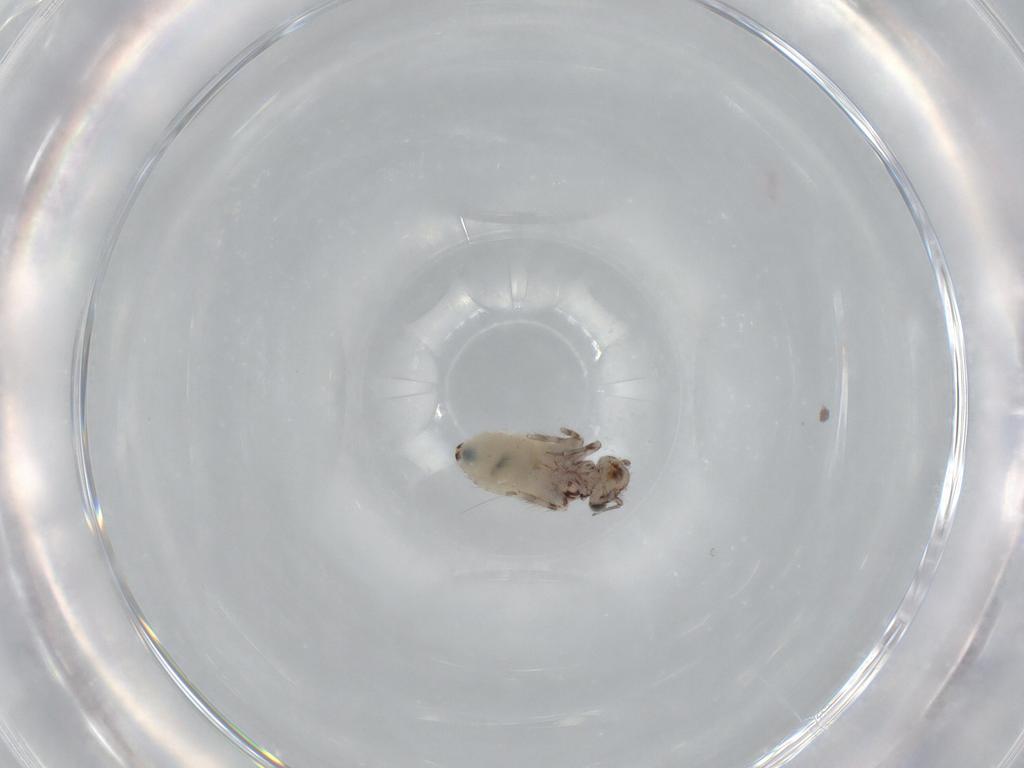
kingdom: Animalia
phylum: Arthropoda
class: Insecta
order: Psocodea
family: Lepidopsocidae
